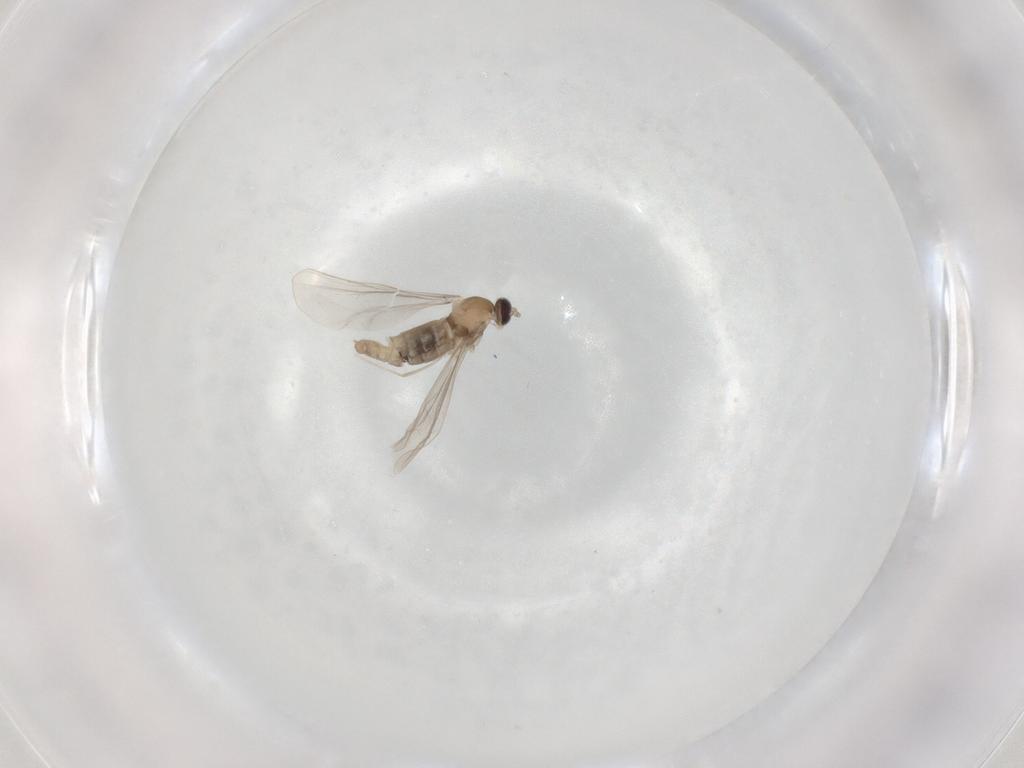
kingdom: Animalia
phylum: Arthropoda
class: Insecta
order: Diptera
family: Cecidomyiidae
